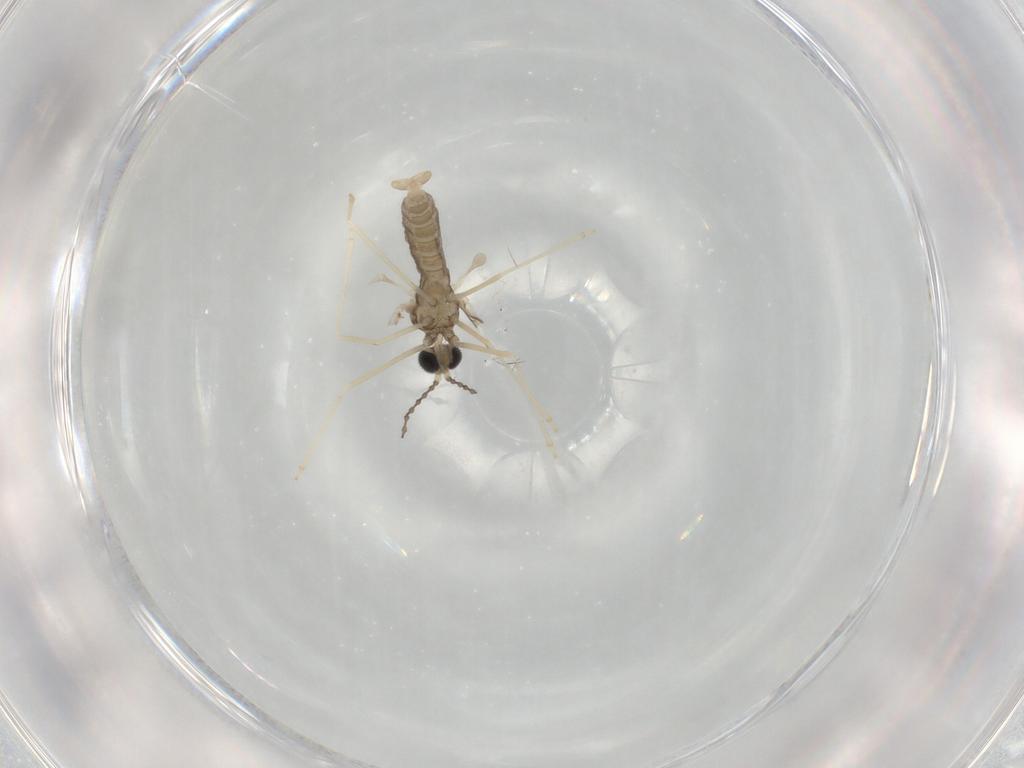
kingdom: Animalia
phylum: Arthropoda
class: Insecta
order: Diptera
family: Cecidomyiidae
